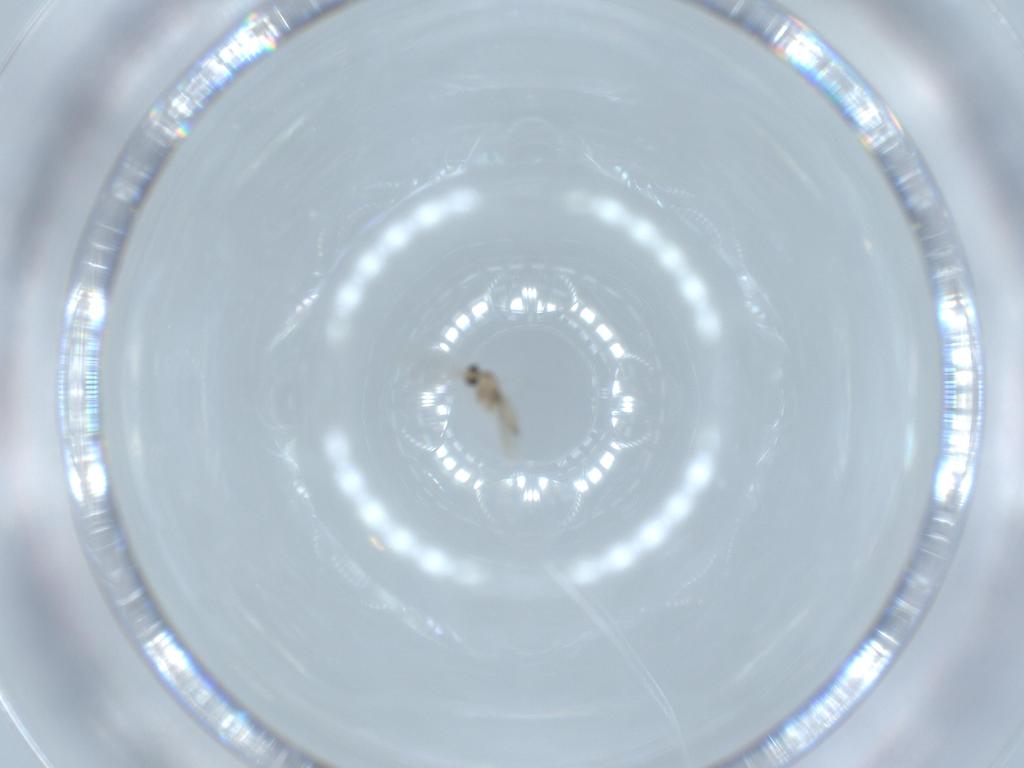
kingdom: Animalia
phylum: Arthropoda
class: Insecta
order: Diptera
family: Cecidomyiidae
